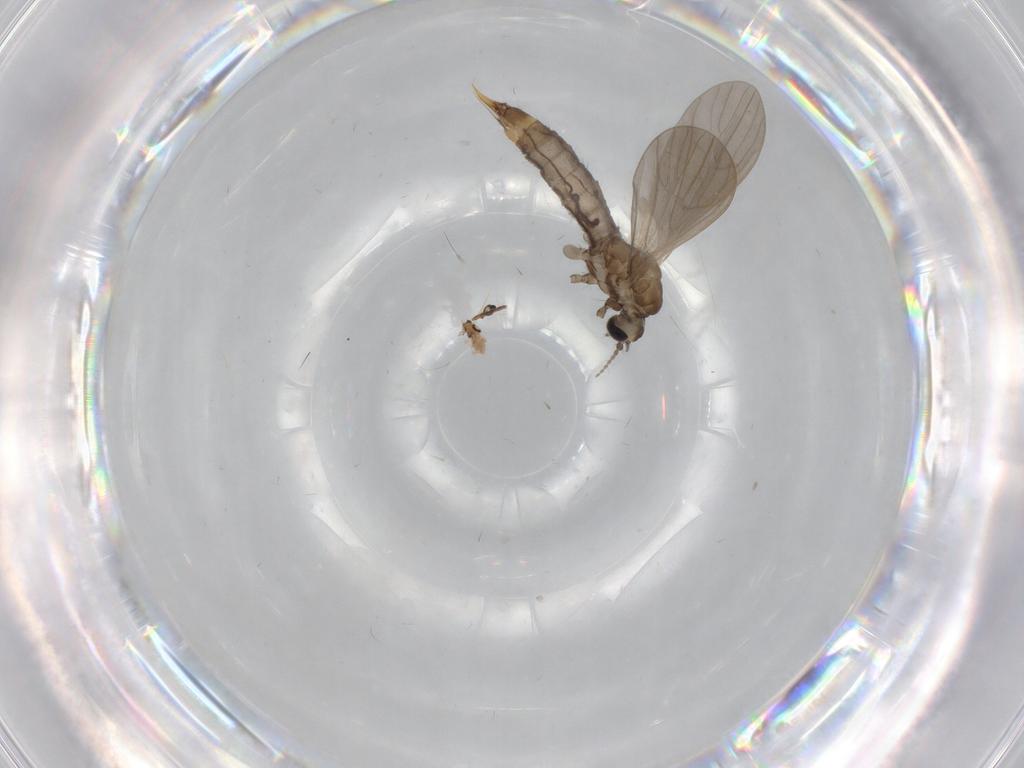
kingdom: Animalia
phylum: Arthropoda
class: Insecta
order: Diptera
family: Limoniidae
